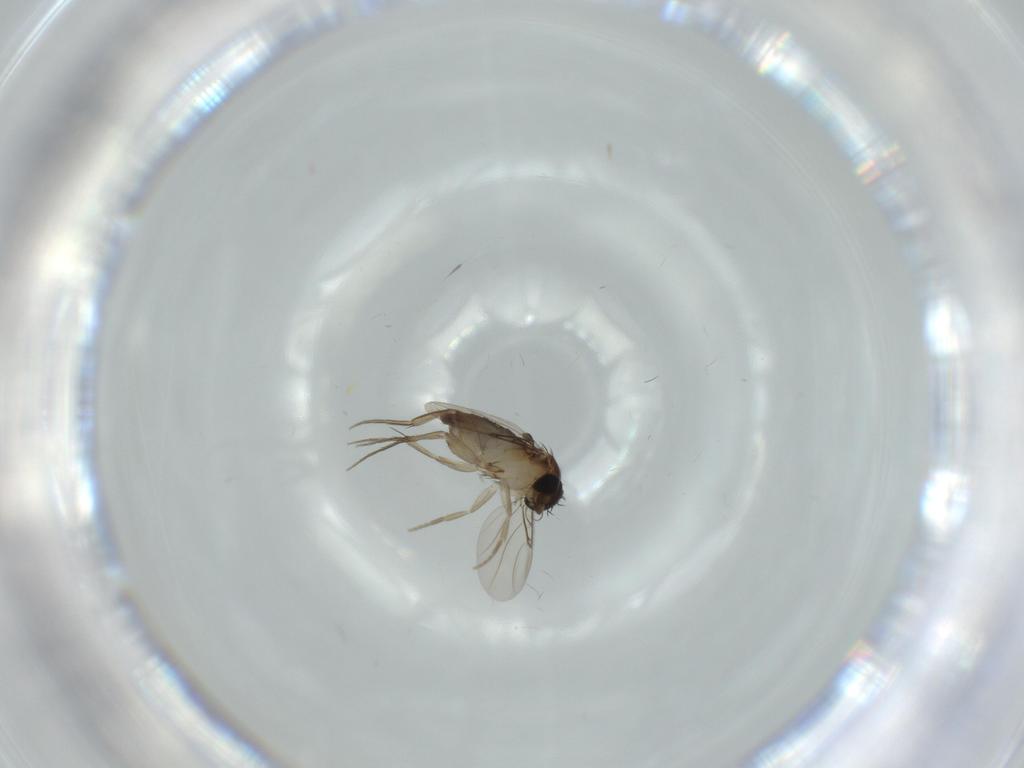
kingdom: Animalia
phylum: Arthropoda
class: Insecta
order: Diptera
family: Phoridae
